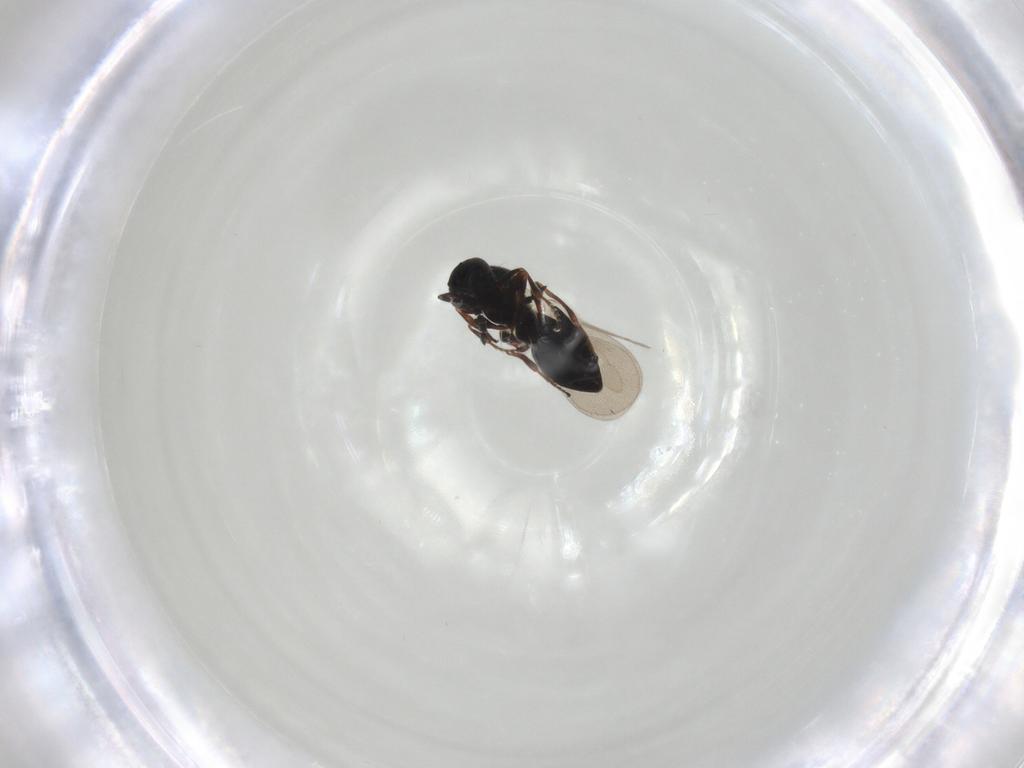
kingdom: Animalia
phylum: Arthropoda
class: Insecta
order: Hymenoptera
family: Platygastridae
